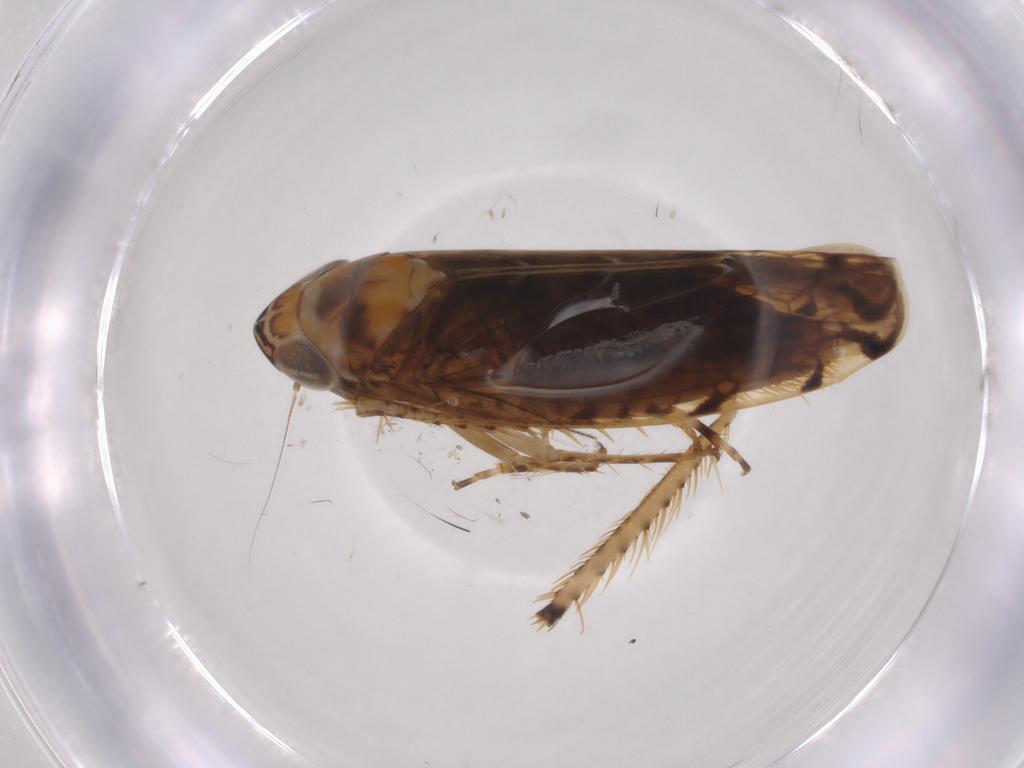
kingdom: Animalia
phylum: Arthropoda
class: Insecta
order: Hemiptera
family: Cicadellidae
